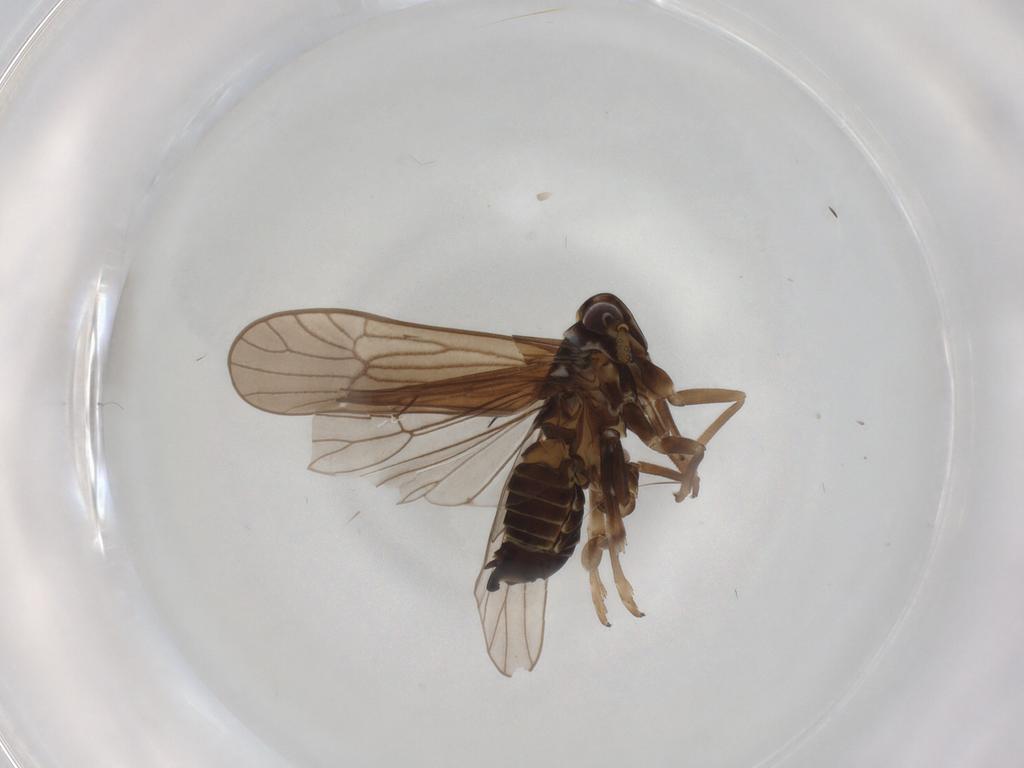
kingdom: Animalia
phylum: Arthropoda
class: Insecta
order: Hemiptera
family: Delphacidae
